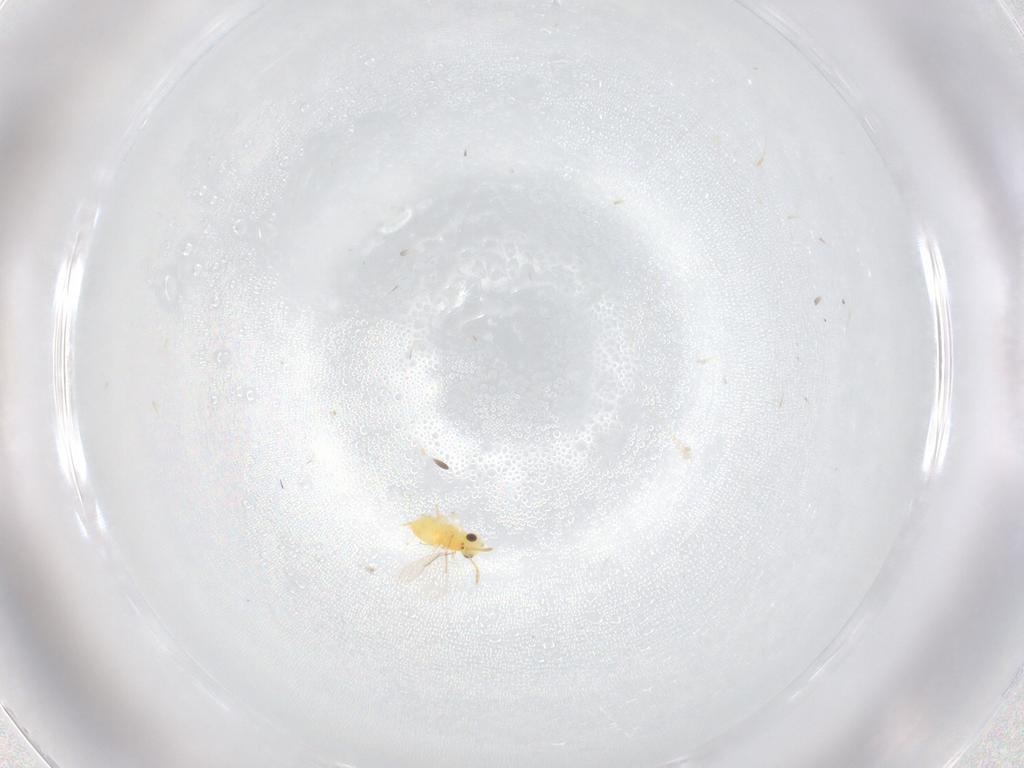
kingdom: Animalia
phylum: Arthropoda
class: Insecta
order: Hymenoptera
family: Aphelinidae
